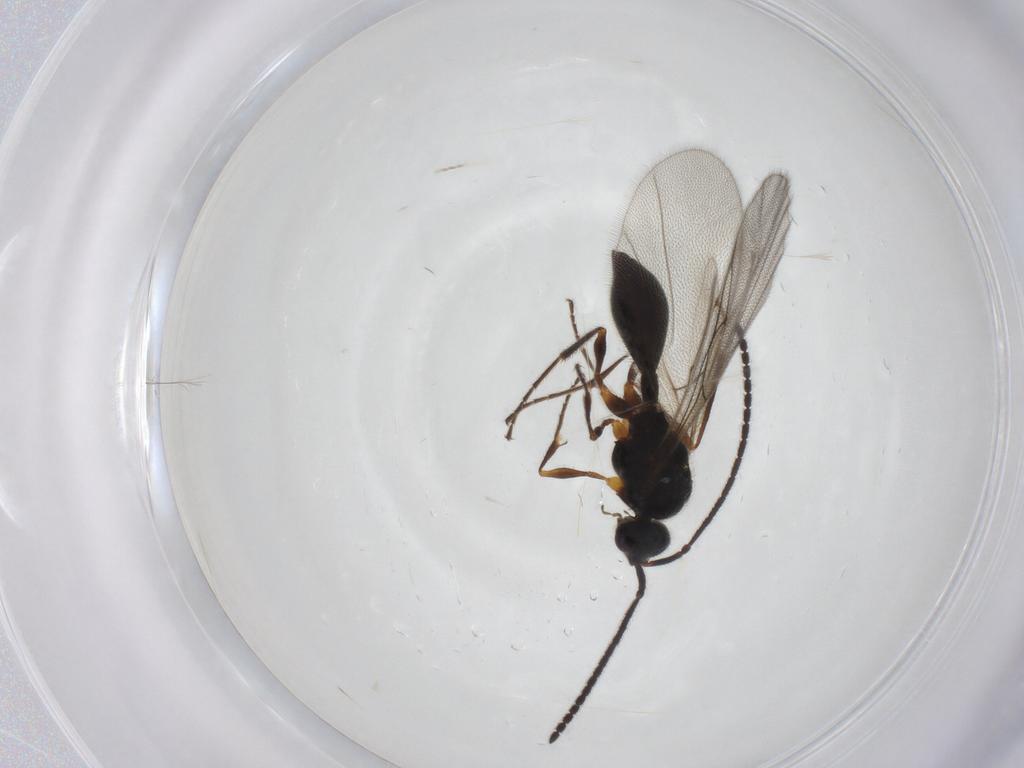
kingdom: Animalia
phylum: Arthropoda
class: Insecta
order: Hymenoptera
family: Diapriidae
